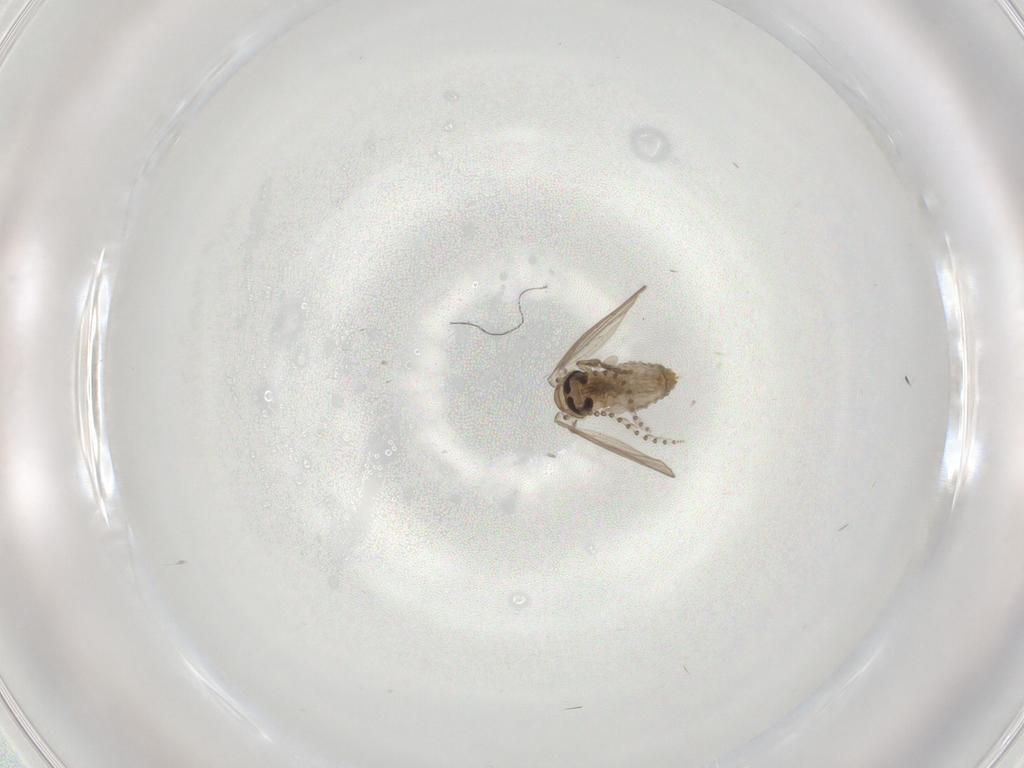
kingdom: Animalia
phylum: Arthropoda
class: Insecta
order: Diptera
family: Psychodidae
